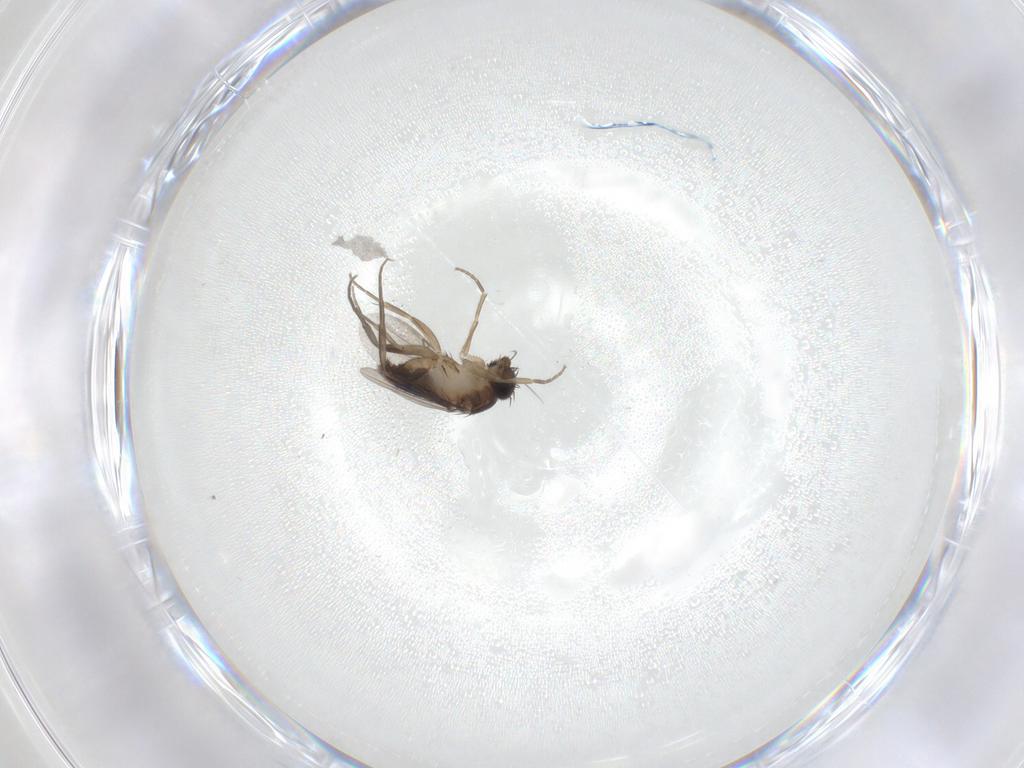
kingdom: Animalia
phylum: Arthropoda
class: Insecta
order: Diptera
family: Phoridae
